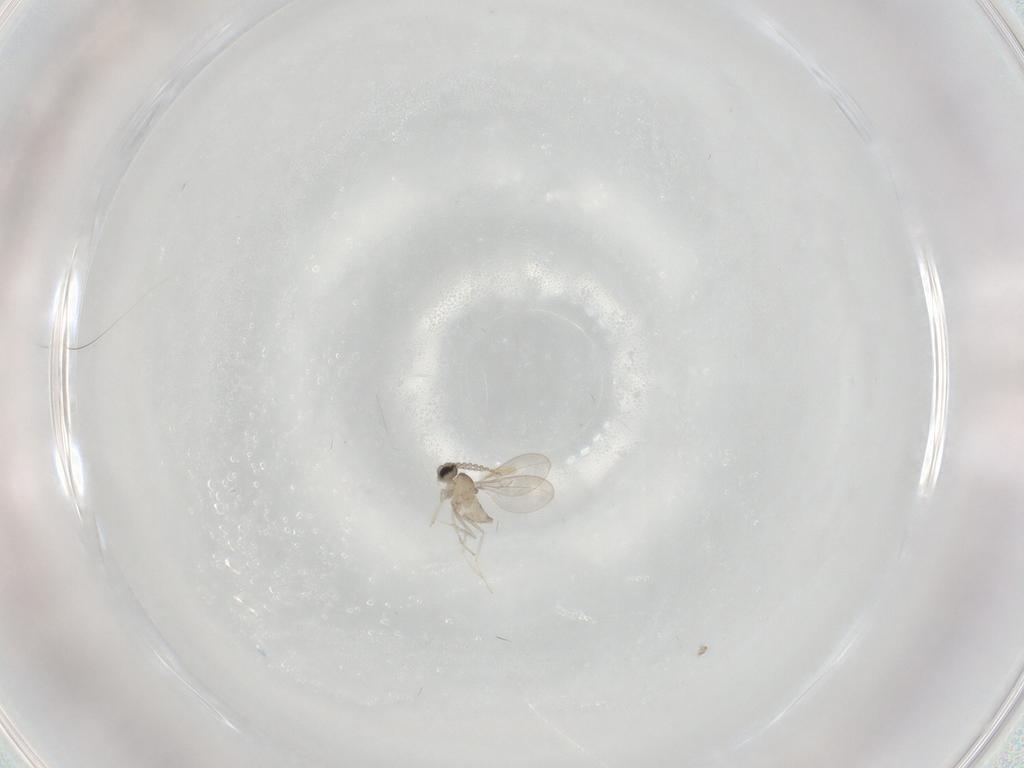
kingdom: Animalia
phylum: Arthropoda
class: Insecta
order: Diptera
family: Cecidomyiidae
